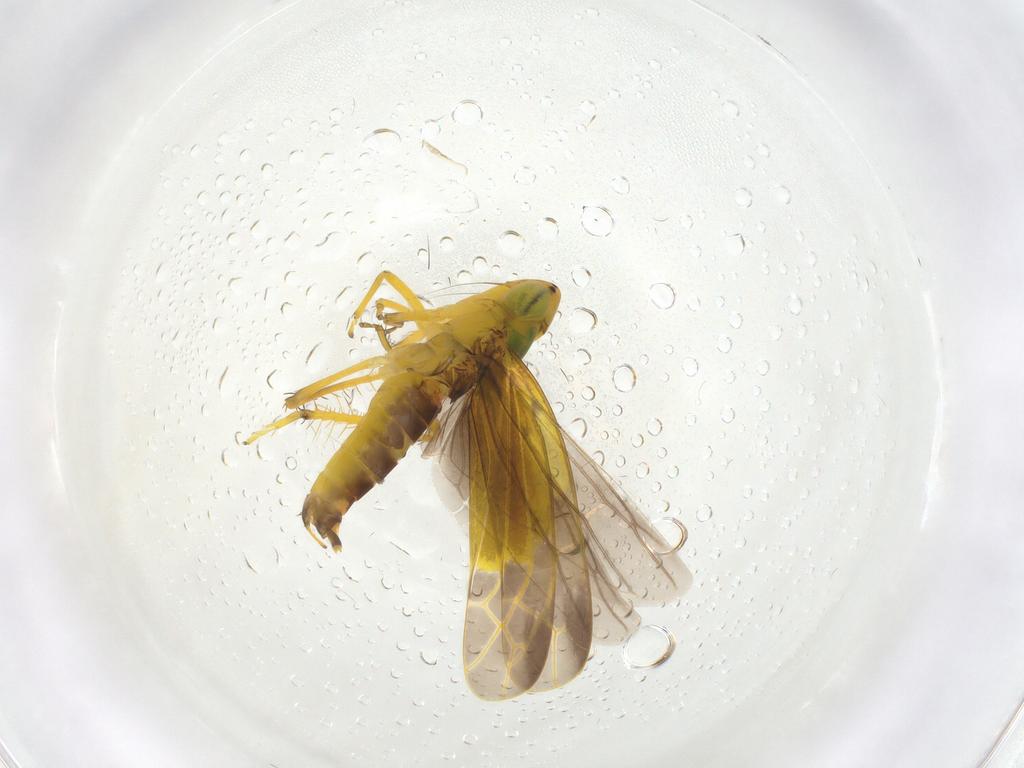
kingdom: Animalia
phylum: Arthropoda
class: Insecta
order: Hemiptera
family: Cicadellidae
